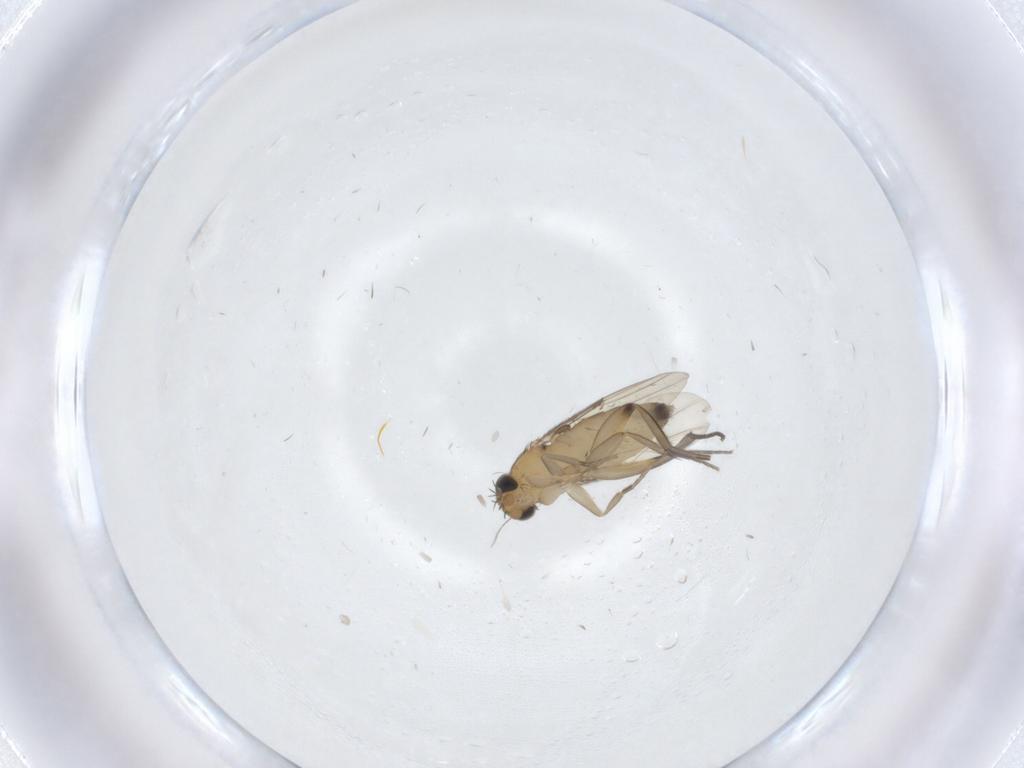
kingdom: Animalia
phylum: Arthropoda
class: Insecta
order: Diptera
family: Phoridae
